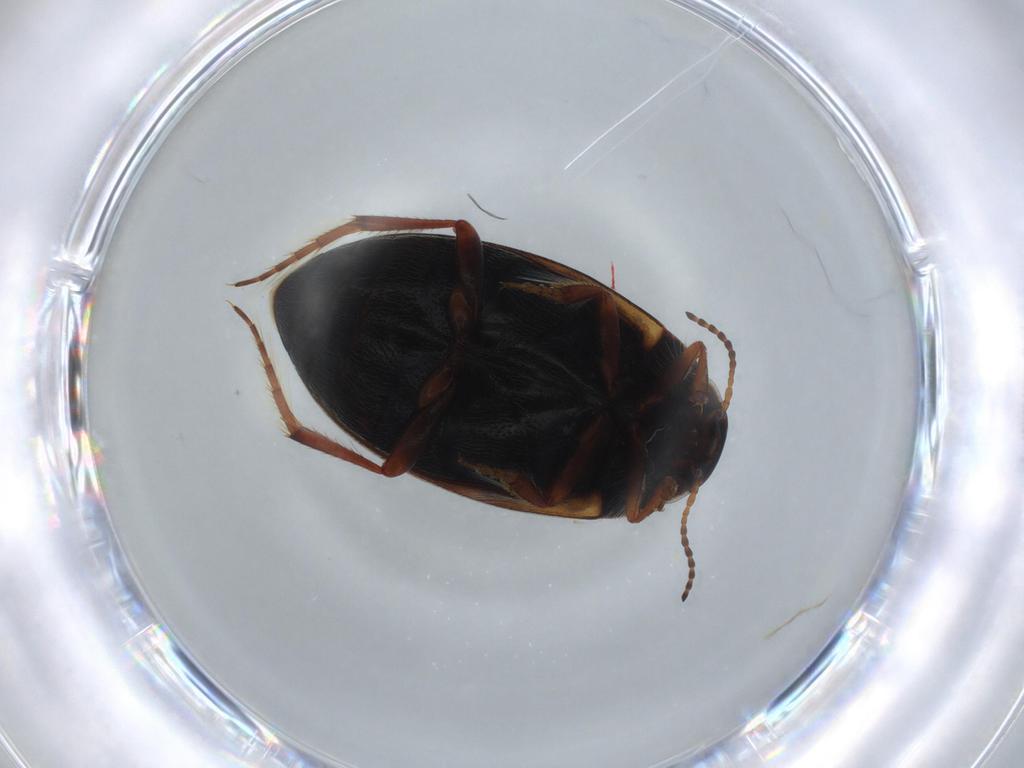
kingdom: Animalia
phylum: Arthropoda
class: Insecta
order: Coleoptera
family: Dytiscidae
